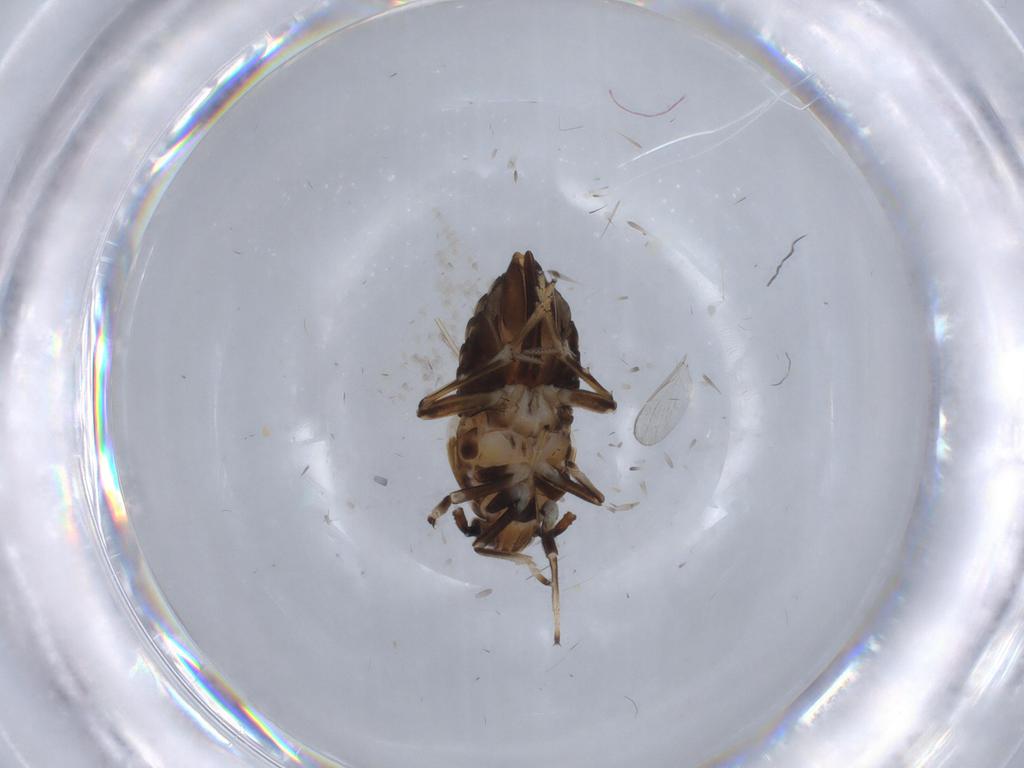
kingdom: Animalia
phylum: Arthropoda
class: Insecta
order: Hemiptera
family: Delphacidae
